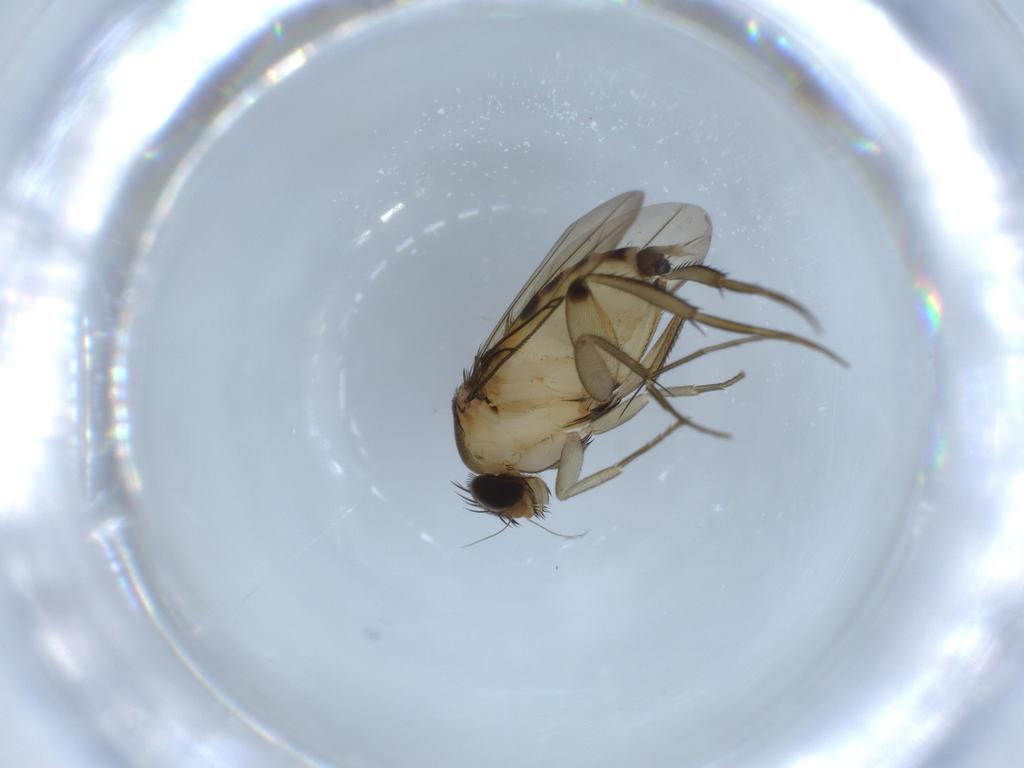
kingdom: Animalia
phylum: Arthropoda
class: Insecta
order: Diptera
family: Phoridae
